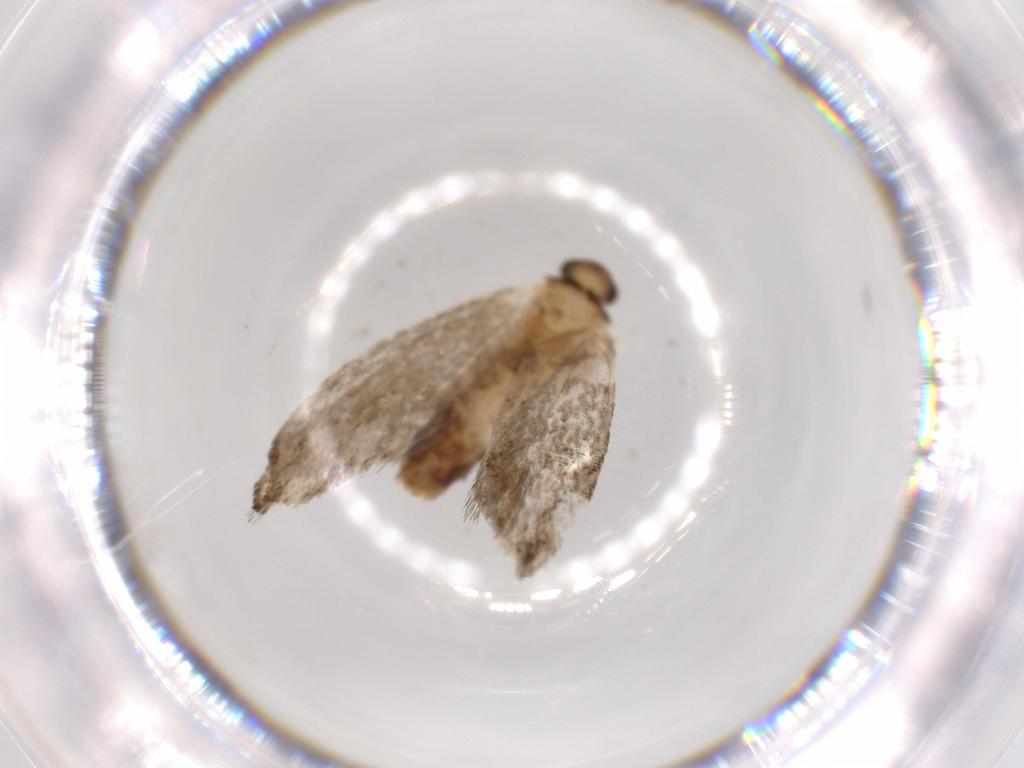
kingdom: Animalia
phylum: Arthropoda
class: Insecta
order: Lepidoptera
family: Tineidae
